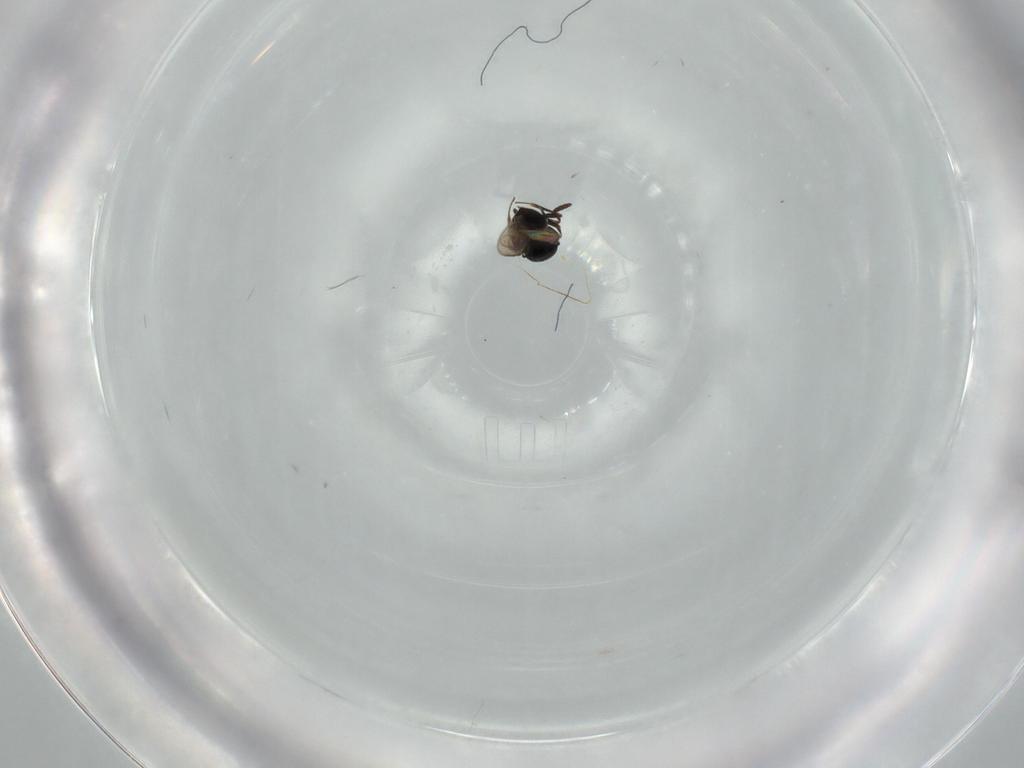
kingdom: Animalia
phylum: Arthropoda
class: Insecta
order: Hymenoptera
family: Scelionidae
